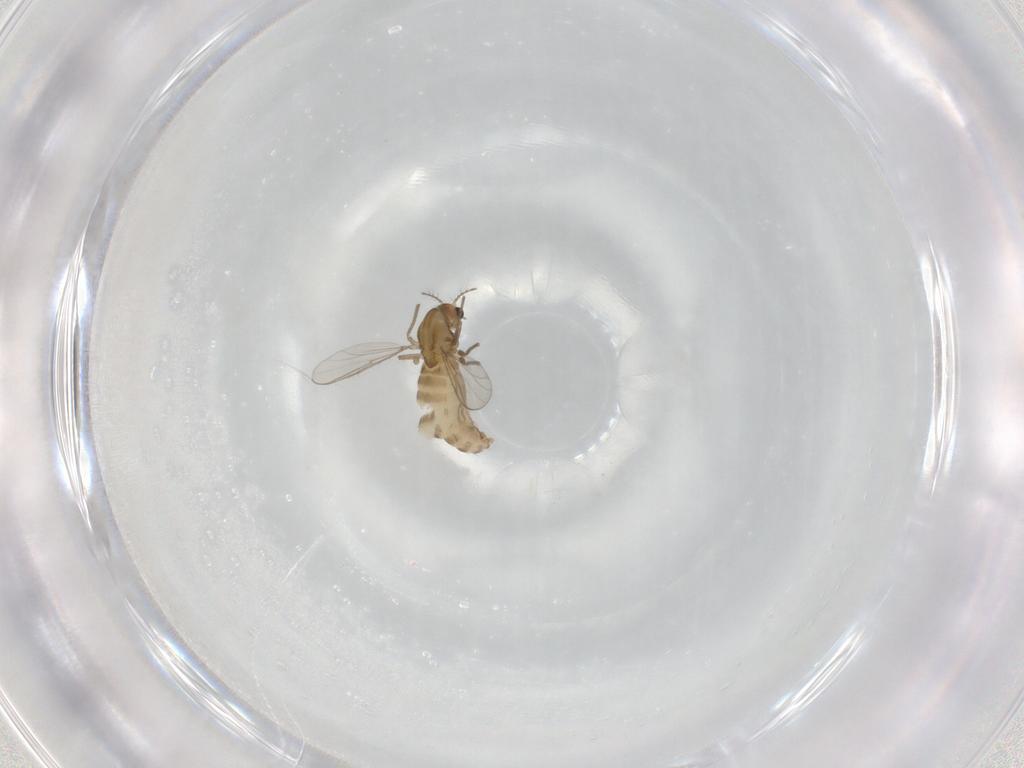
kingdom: Animalia
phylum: Arthropoda
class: Insecta
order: Diptera
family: Chironomidae
